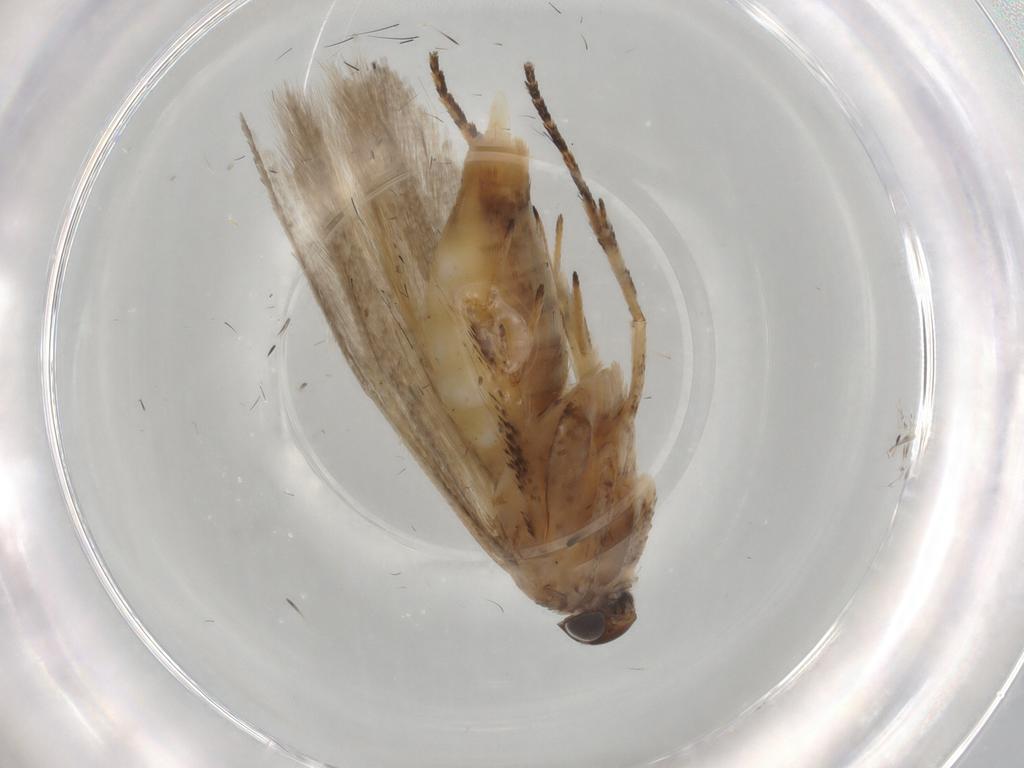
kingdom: Animalia
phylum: Arthropoda
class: Insecta
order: Lepidoptera
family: Gelechiidae
